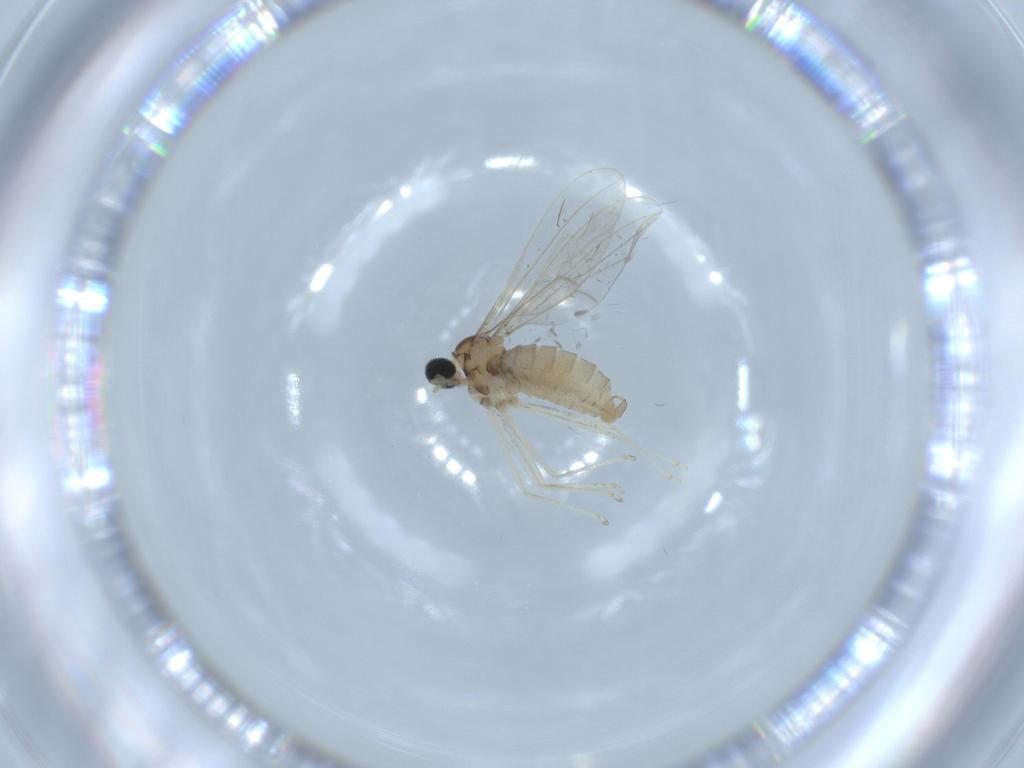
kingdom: Animalia
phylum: Arthropoda
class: Insecta
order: Diptera
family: Cecidomyiidae
